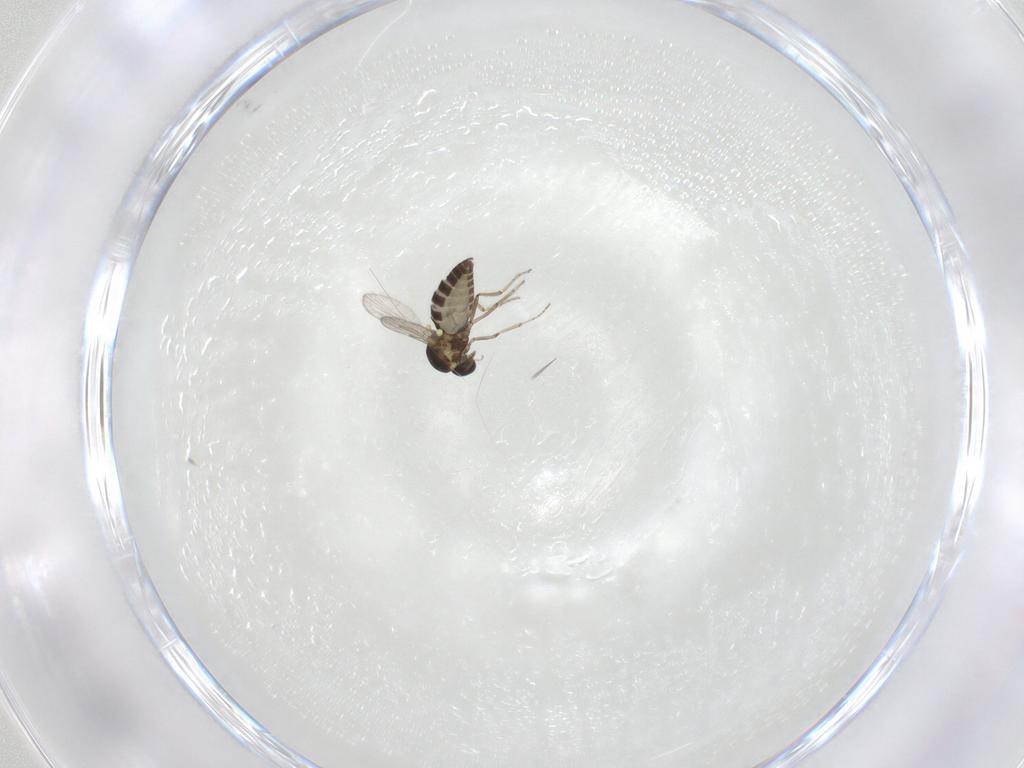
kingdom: Animalia
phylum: Arthropoda
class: Insecta
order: Diptera
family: Ceratopogonidae
